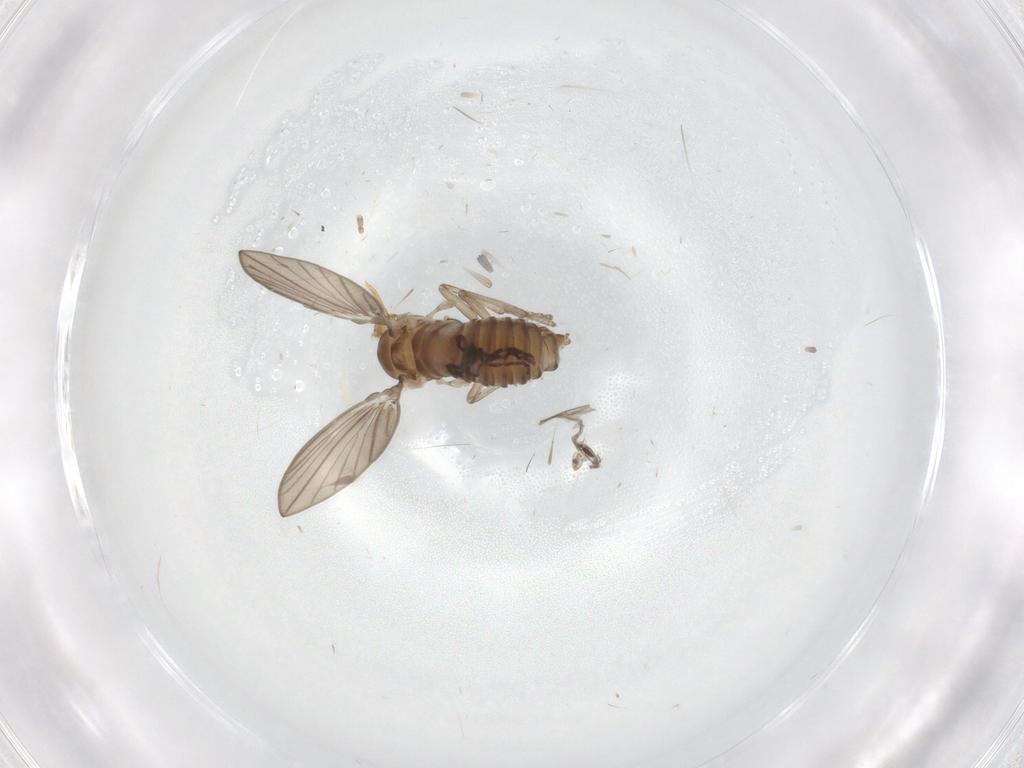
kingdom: Animalia
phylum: Arthropoda
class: Insecta
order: Diptera
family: Psychodidae
